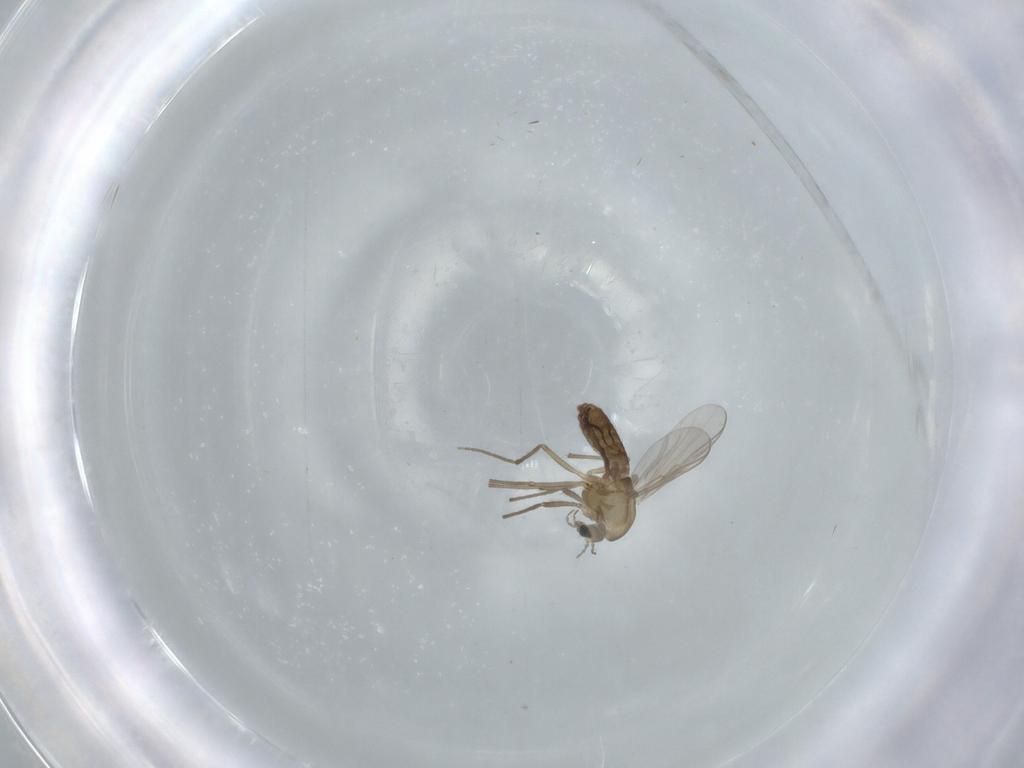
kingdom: Animalia
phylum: Arthropoda
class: Insecta
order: Diptera
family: Chironomidae
